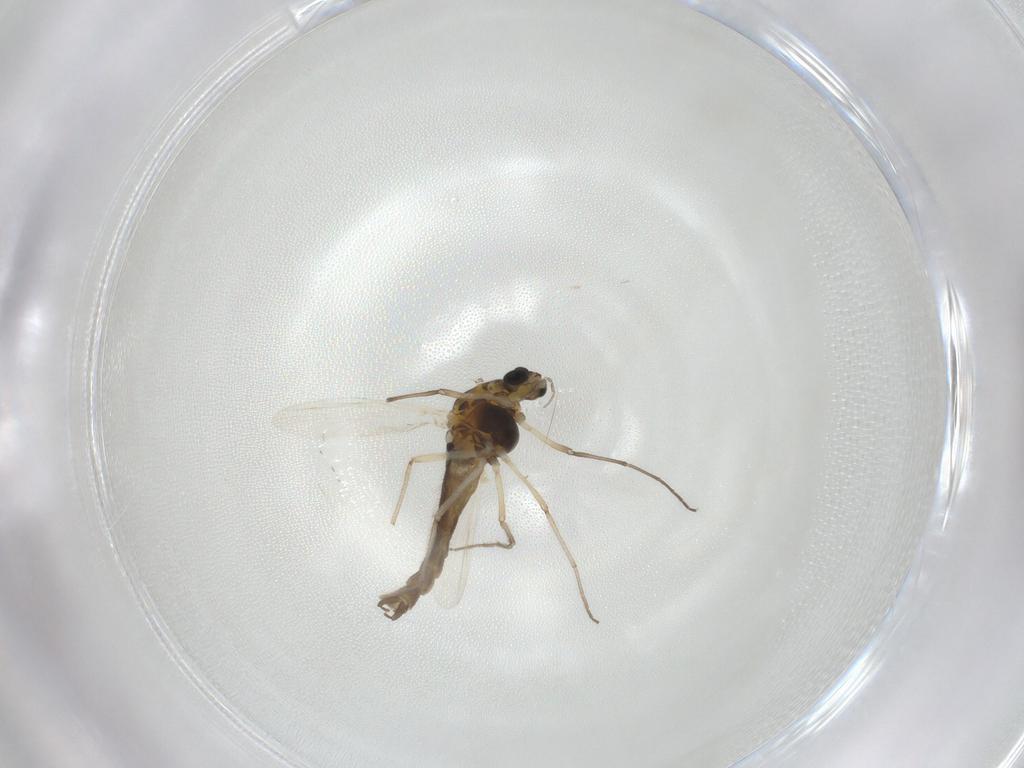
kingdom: Animalia
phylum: Arthropoda
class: Insecta
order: Diptera
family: Chironomidae
